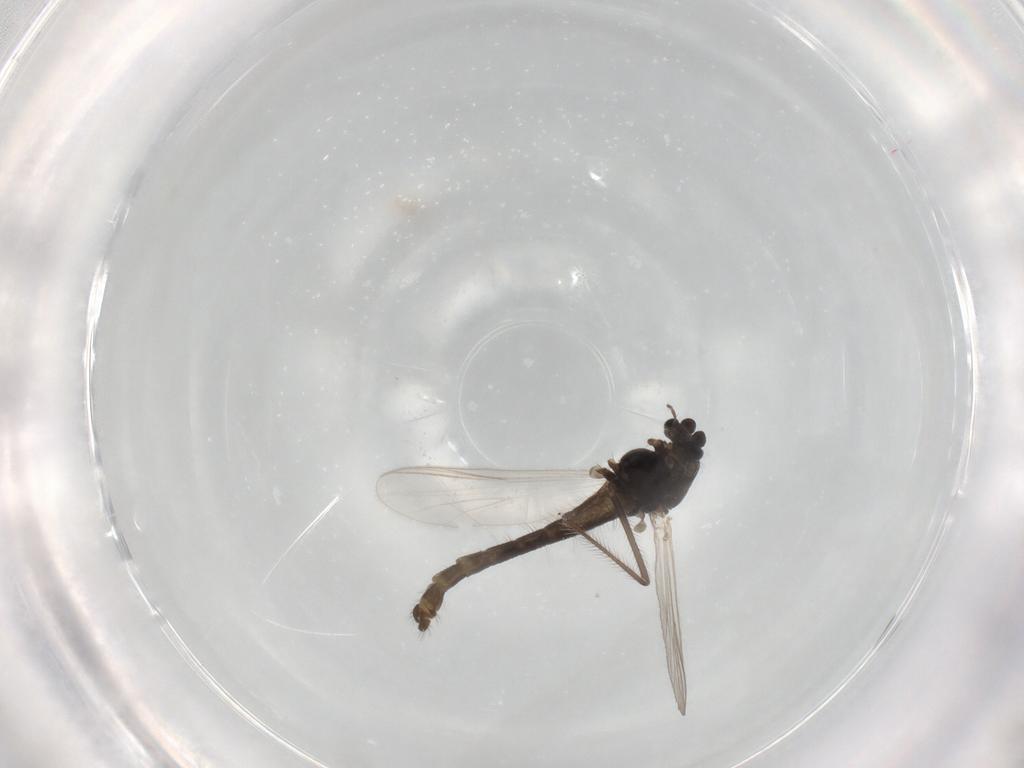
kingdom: Animalia
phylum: Arthropoda
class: Insecta
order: Diptera
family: Chironomidae
